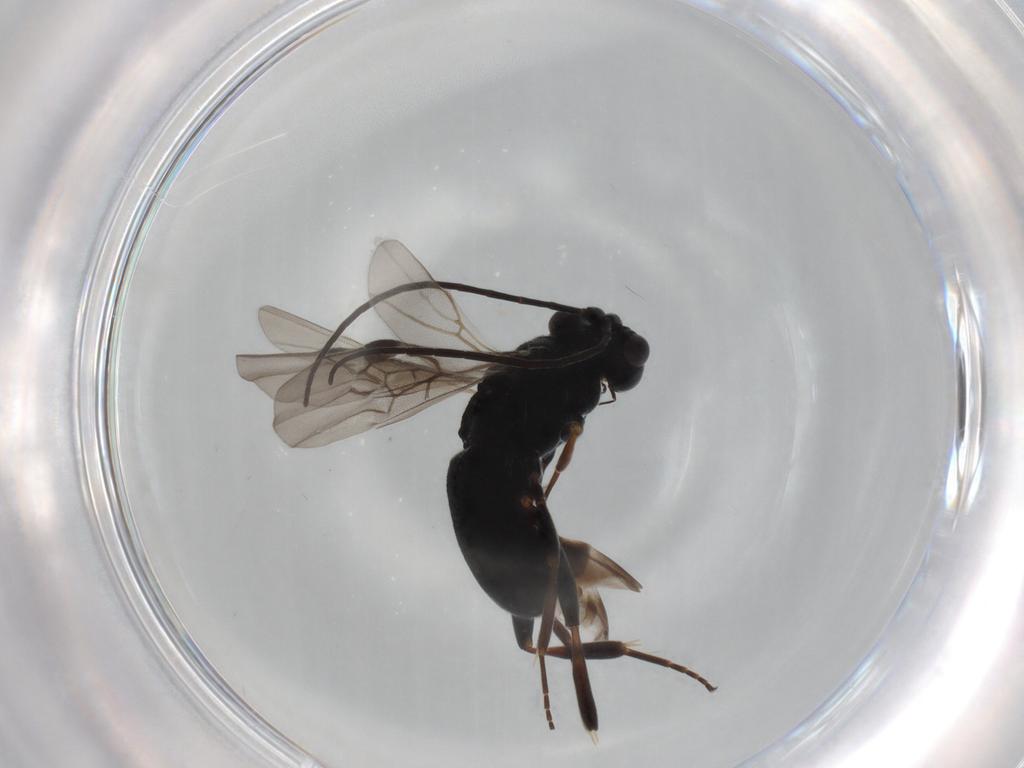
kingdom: Animalia
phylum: Arthropoda
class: Insecta
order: Hymenoptera
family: Braconidae
